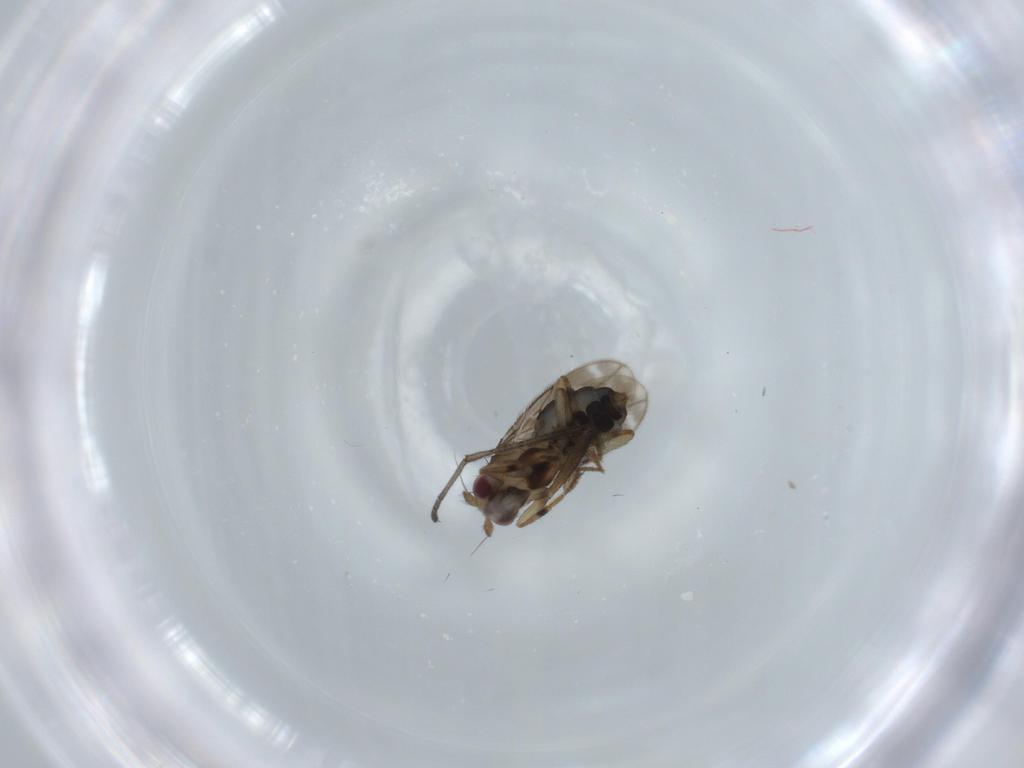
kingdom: Animalia
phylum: Arthropoda
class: Insecta
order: Diptera
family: Sphaeroceridae
